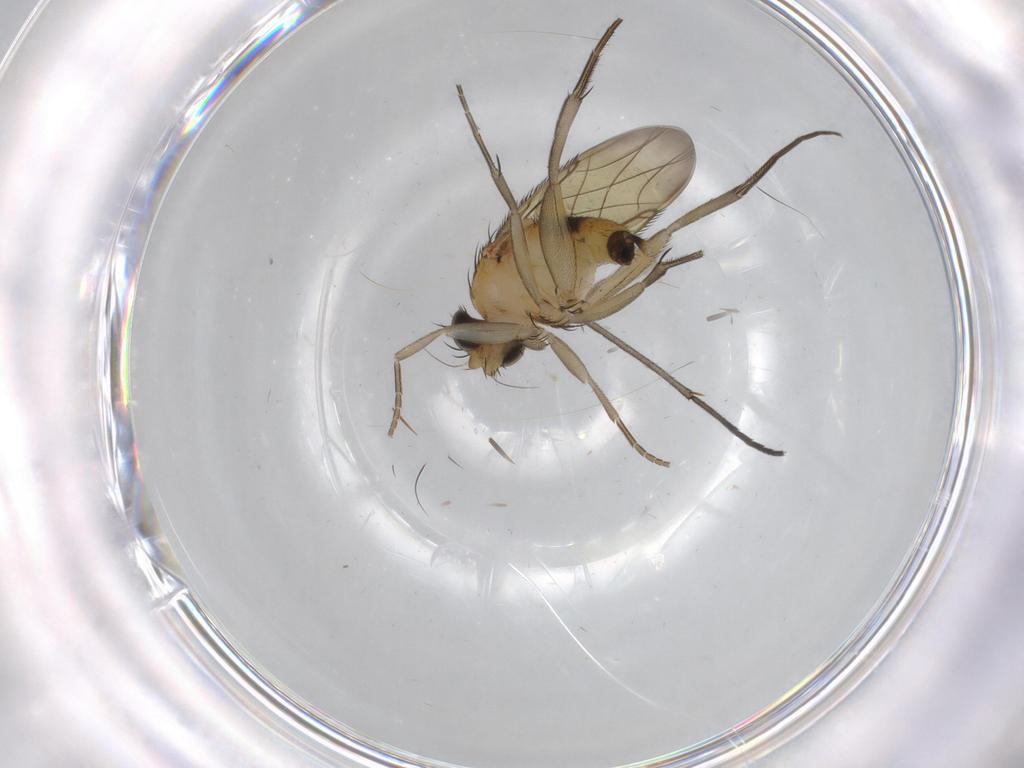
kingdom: Animalia
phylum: Arthropoda
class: Insecta
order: Diptera
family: Phoridae
